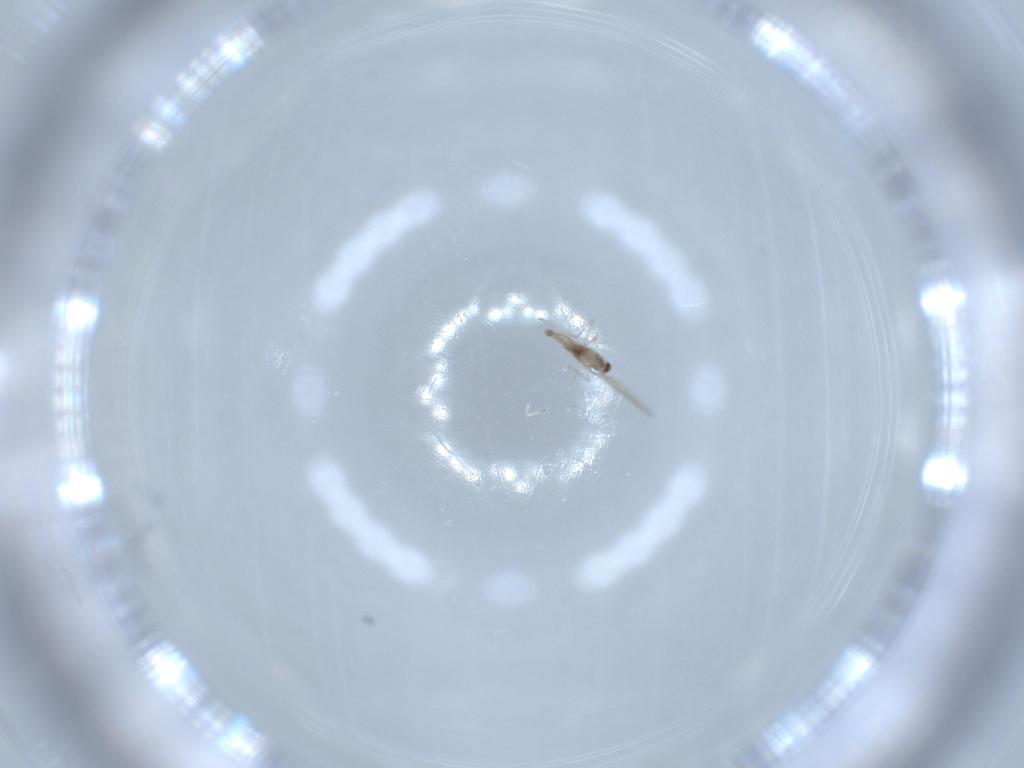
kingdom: Animalia
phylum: Arthropoda
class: Insecta
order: Diptera
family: Cecidomyiidae
